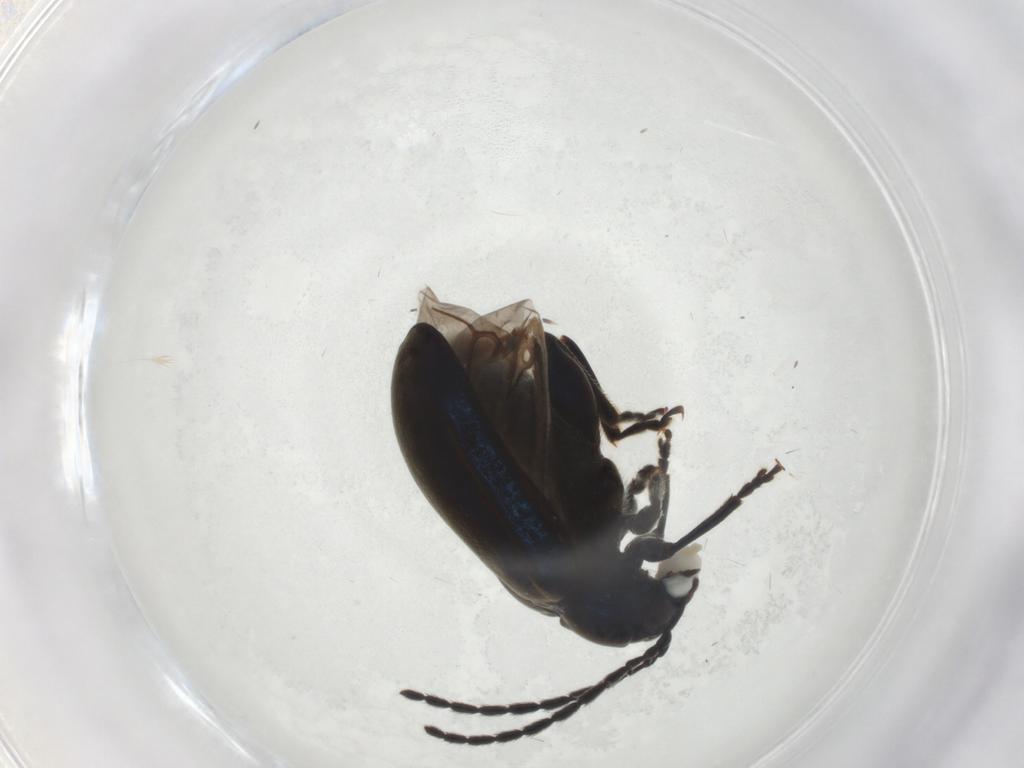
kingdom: Animalia
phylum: Arthropoda
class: Insecta
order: Coleoptera
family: Chrysomelidae
